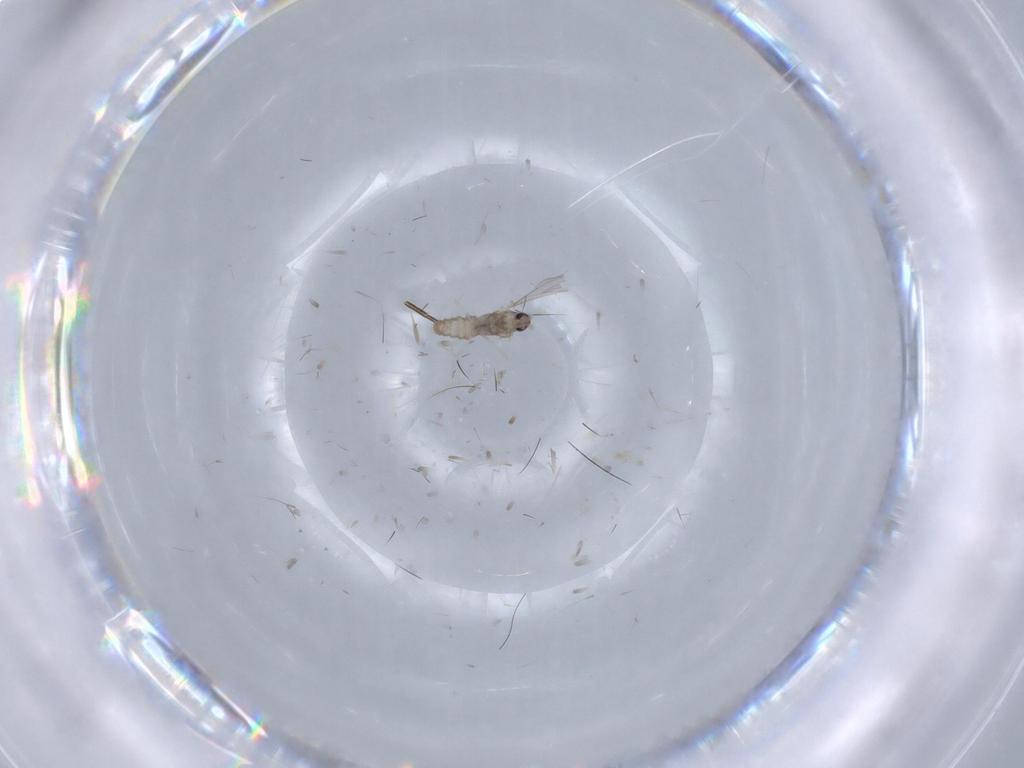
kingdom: Animalia
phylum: Arthropoda
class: Insecta
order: Diptera
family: Cecidomyiidae
